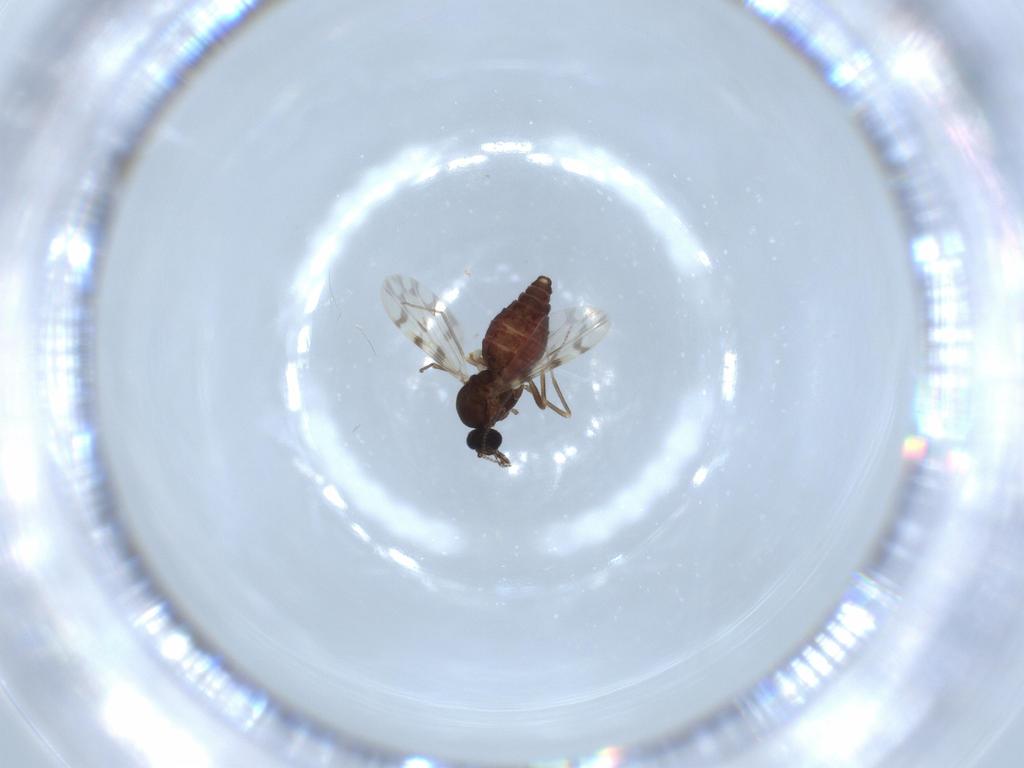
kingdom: Animalia
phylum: Arthropoda
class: Insecta
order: Diptera
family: Ceratopogonidae
